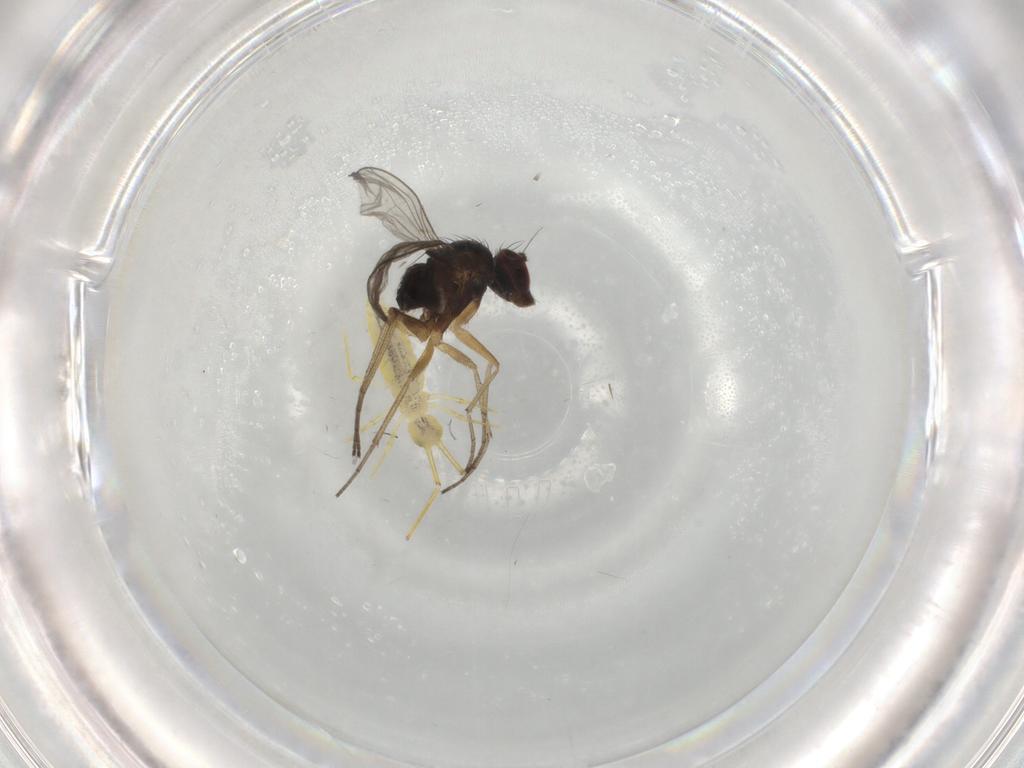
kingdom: Animalia
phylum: Arthropoda
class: Insecta
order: Diptera
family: Dolichopodidae
